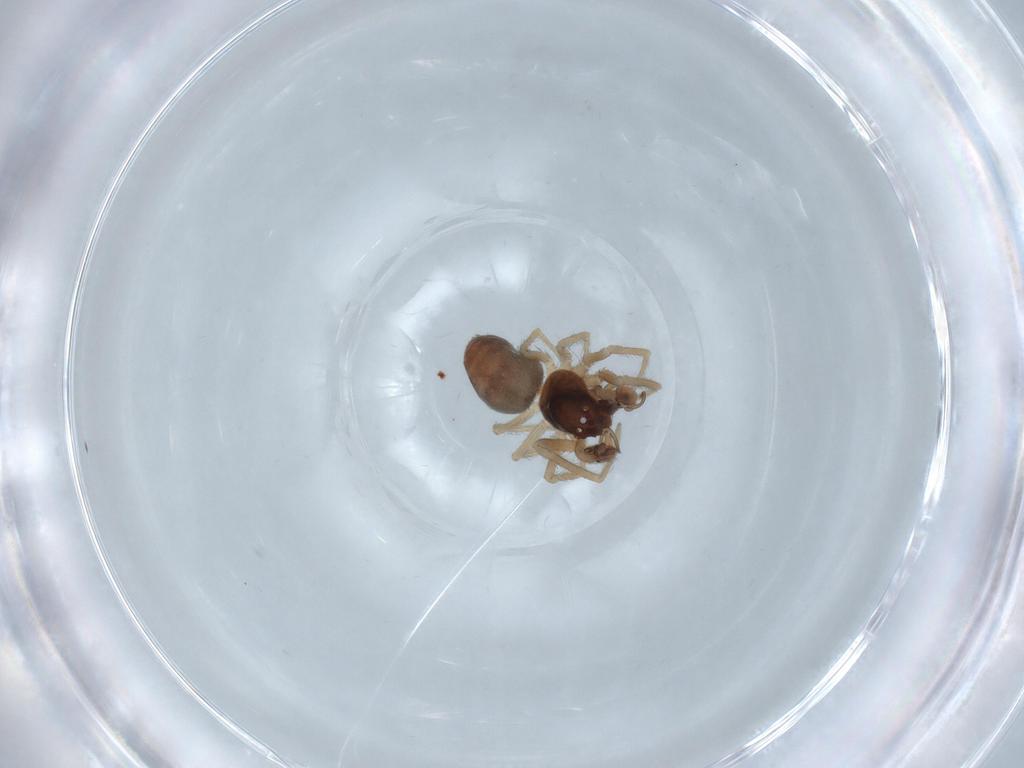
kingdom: Animalia
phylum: Arthropoda
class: Arachnida
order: Araneae
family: Dictynidae
